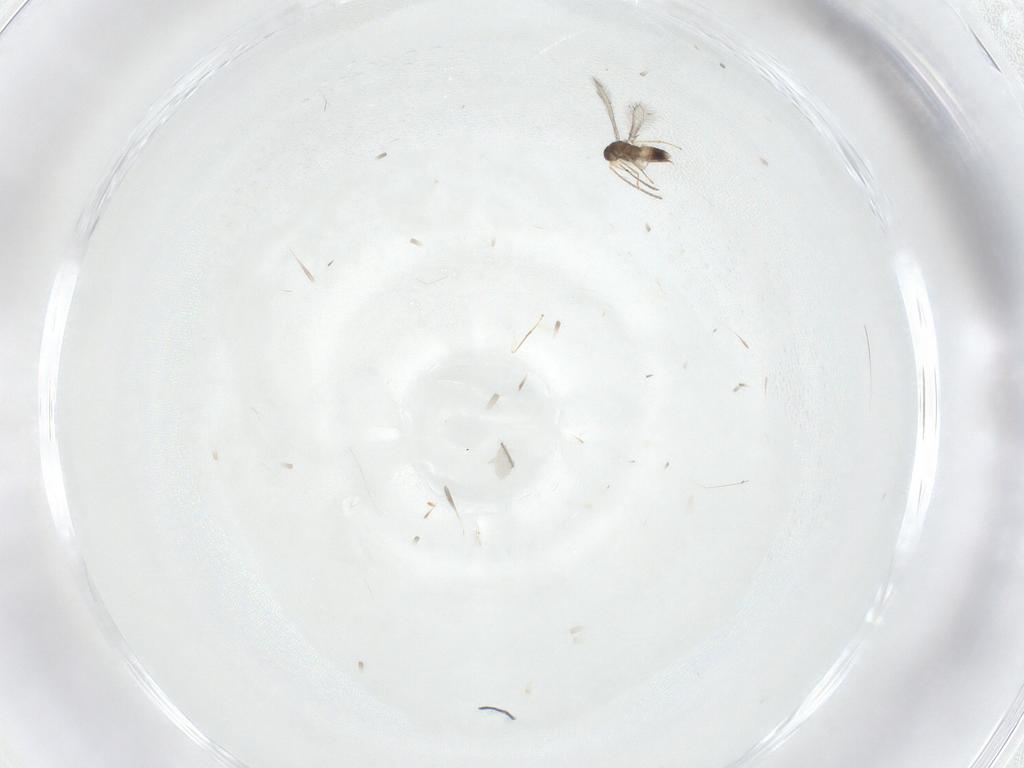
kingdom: Animalia
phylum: Arthropoda
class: Insecta
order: Hymenoptera
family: Mymaridae
